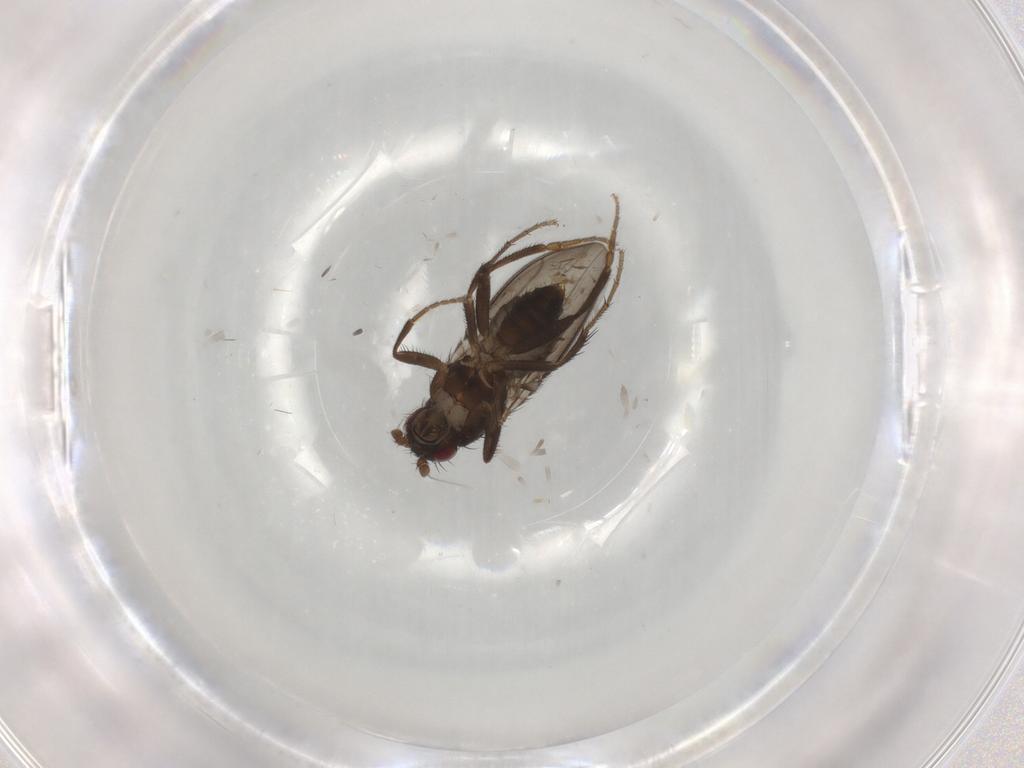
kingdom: Animalia
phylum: Arthropoda
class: Insecta
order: Diptera
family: Sphaeroceridae
